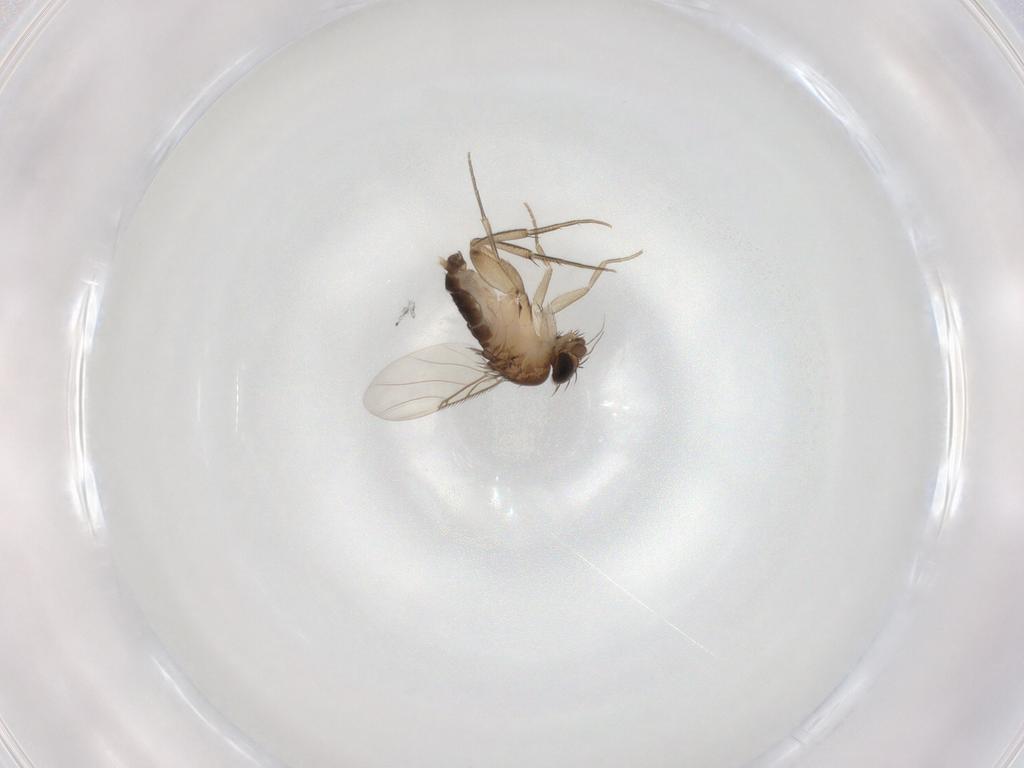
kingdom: Animalia
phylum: Arthropoda
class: Insecta
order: Diptera
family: Phoridae
